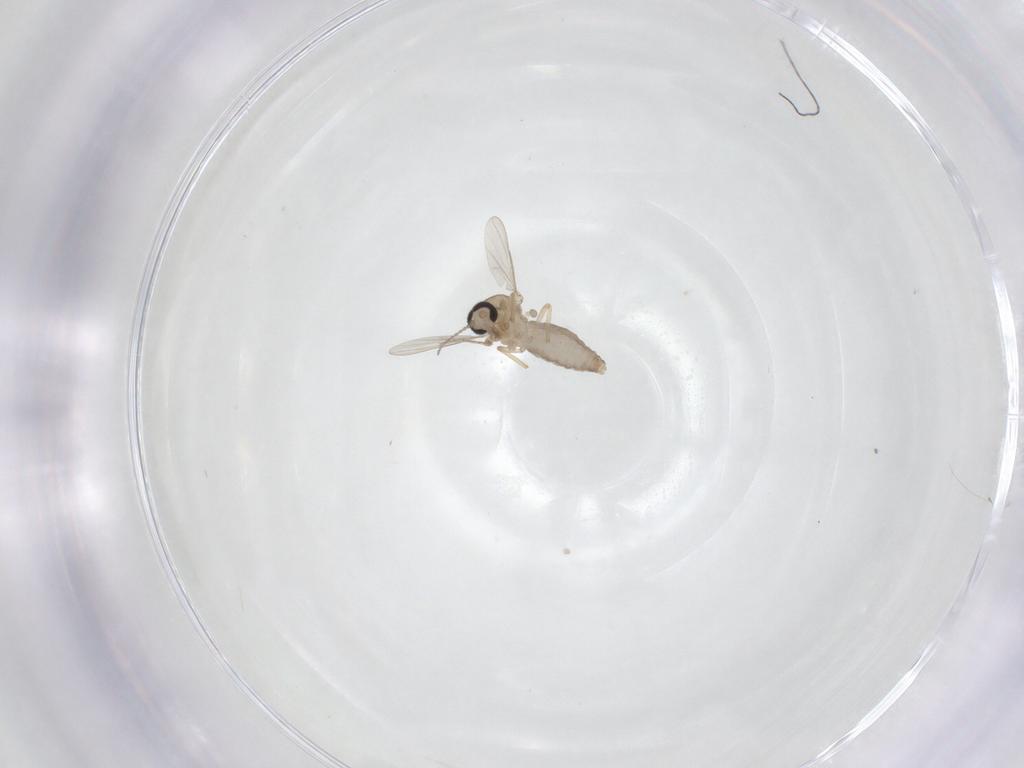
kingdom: Animalia
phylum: Arthropoda
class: Insecta
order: Diptera
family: Ceratopogonidae
